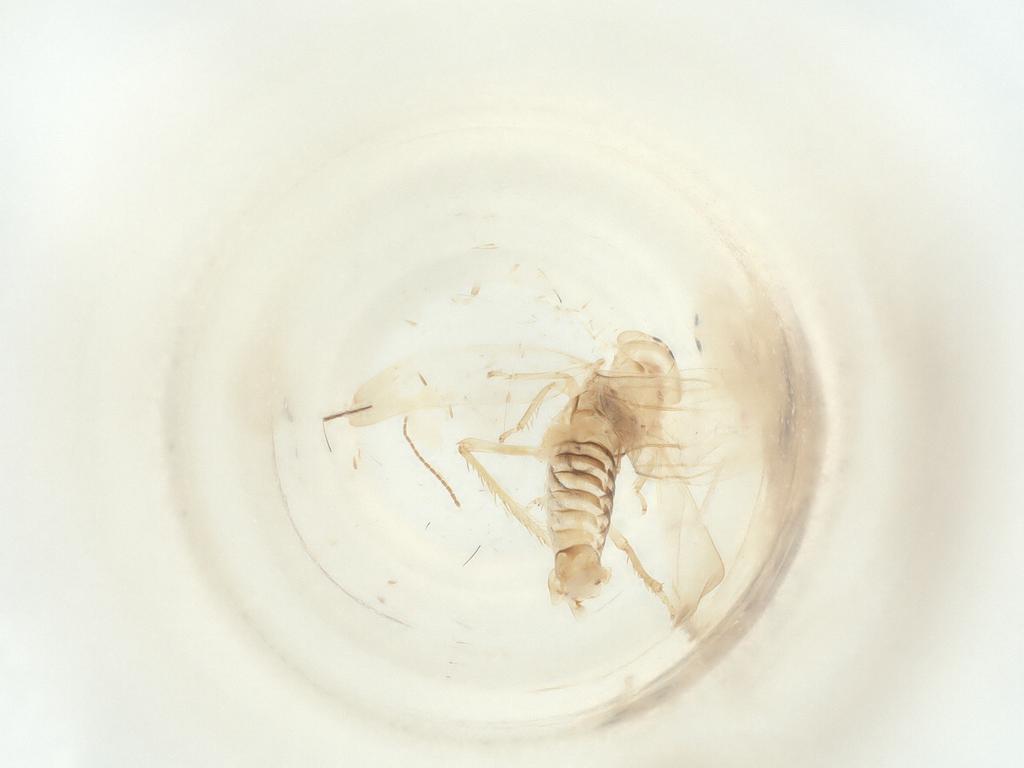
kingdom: Animalia
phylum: Arthropoda
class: Insecta
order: Hemiptera
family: Cicadellidae
